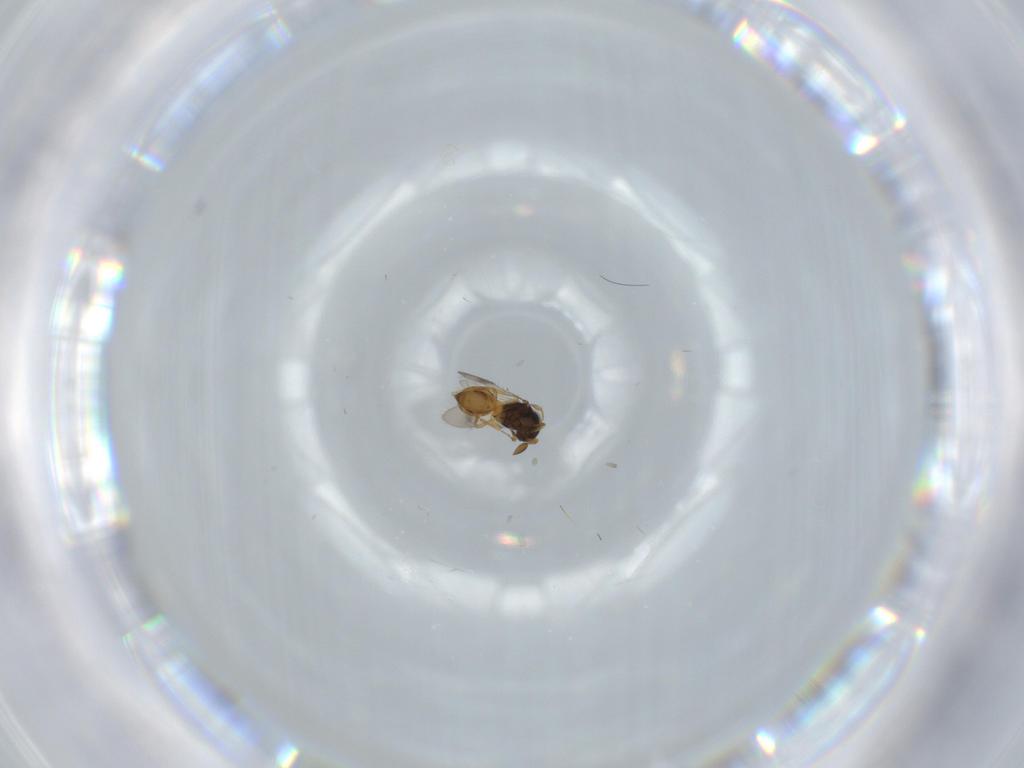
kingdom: Animalia
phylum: Arthropoda
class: Insecta
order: Hymenoptera
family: Scelionidae
